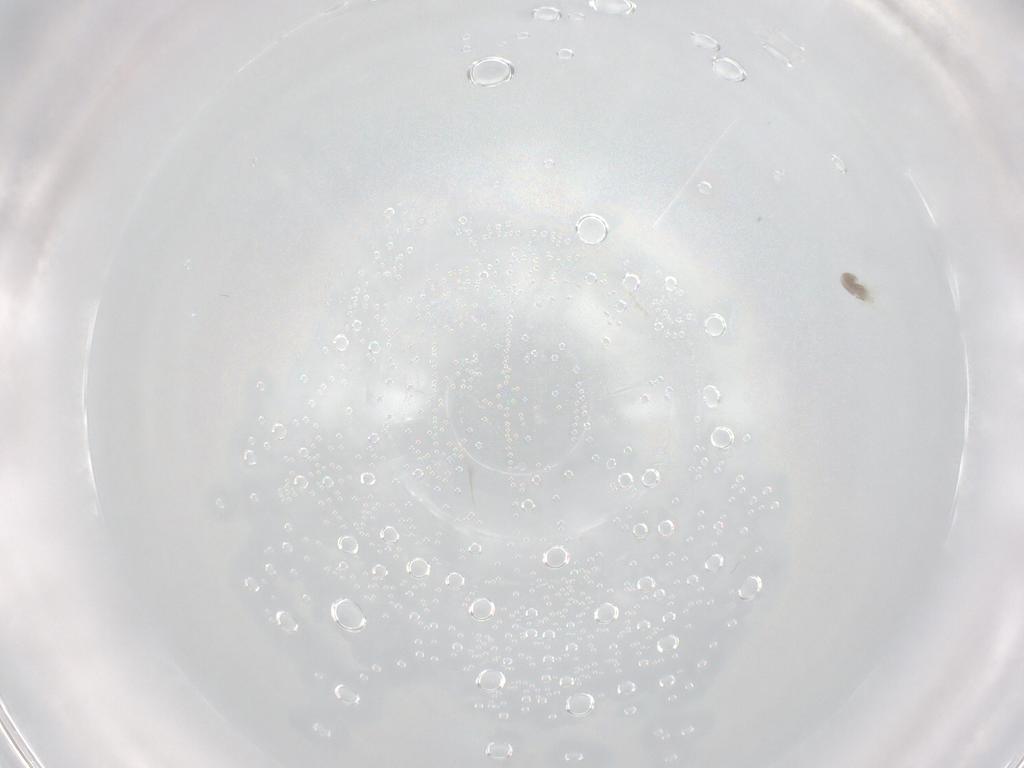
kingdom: Animalia
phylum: Arthropoda
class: Arachnida
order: Trombidiformes
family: Eupodidae
